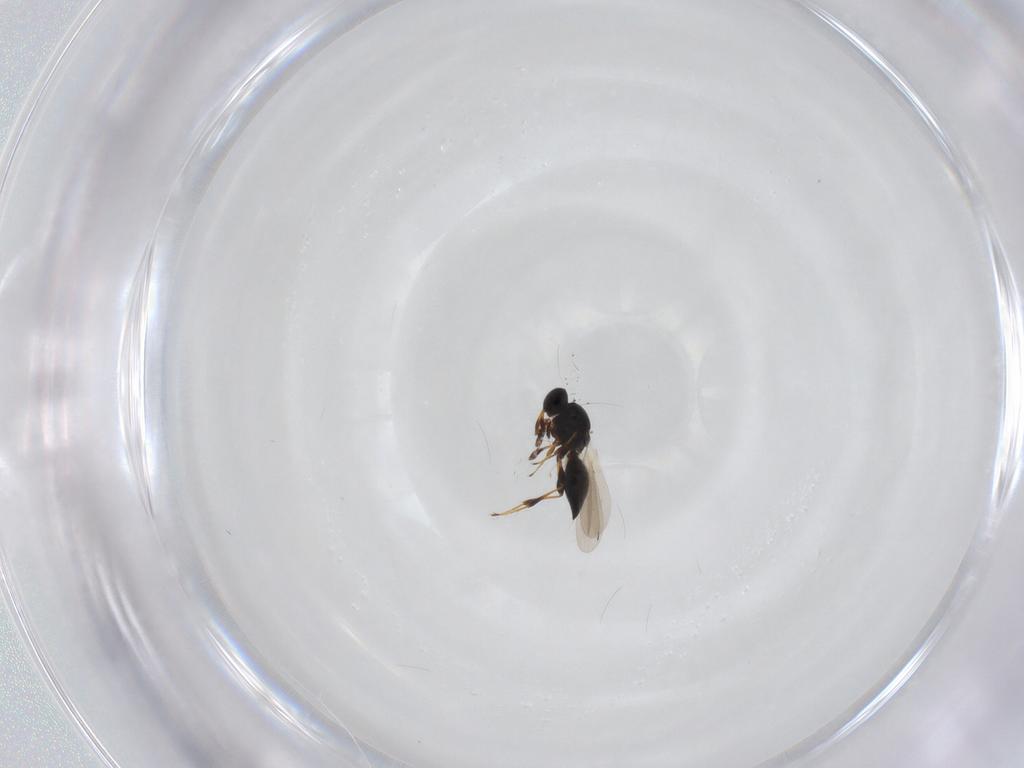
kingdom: Animalia
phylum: Arthropoda
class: Insecta
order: Hymenoptera
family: Platygastridae
